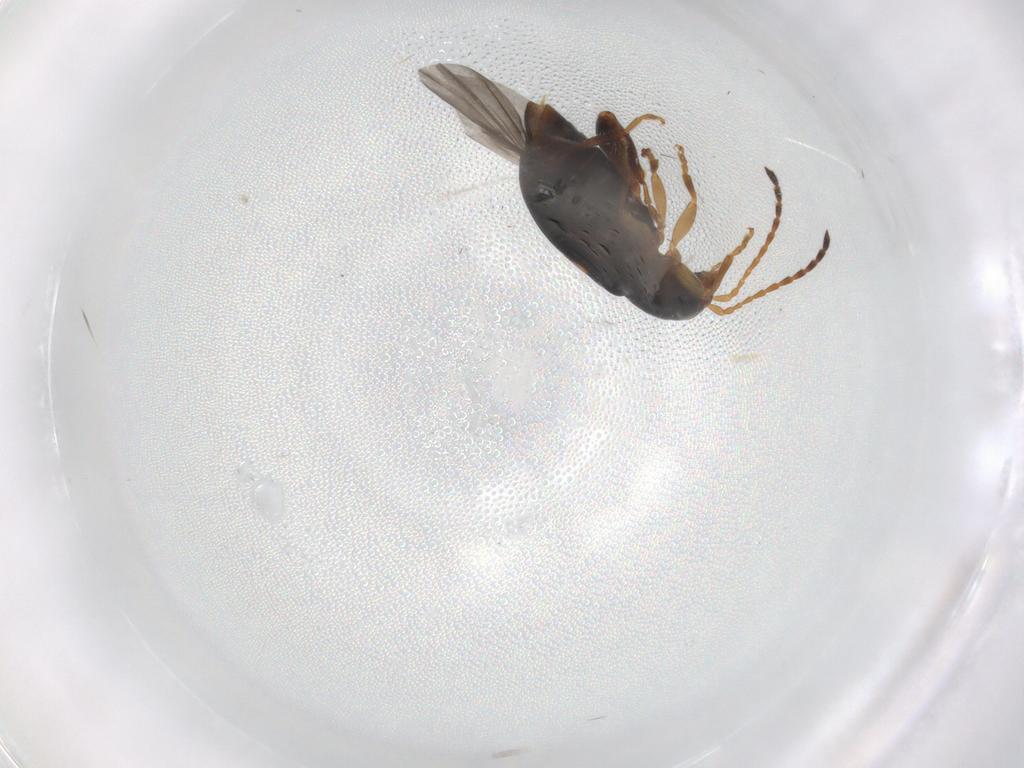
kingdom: Animalia
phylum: Arthropoda
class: Insecta
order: Coleoptera
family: Chrysomelidae
